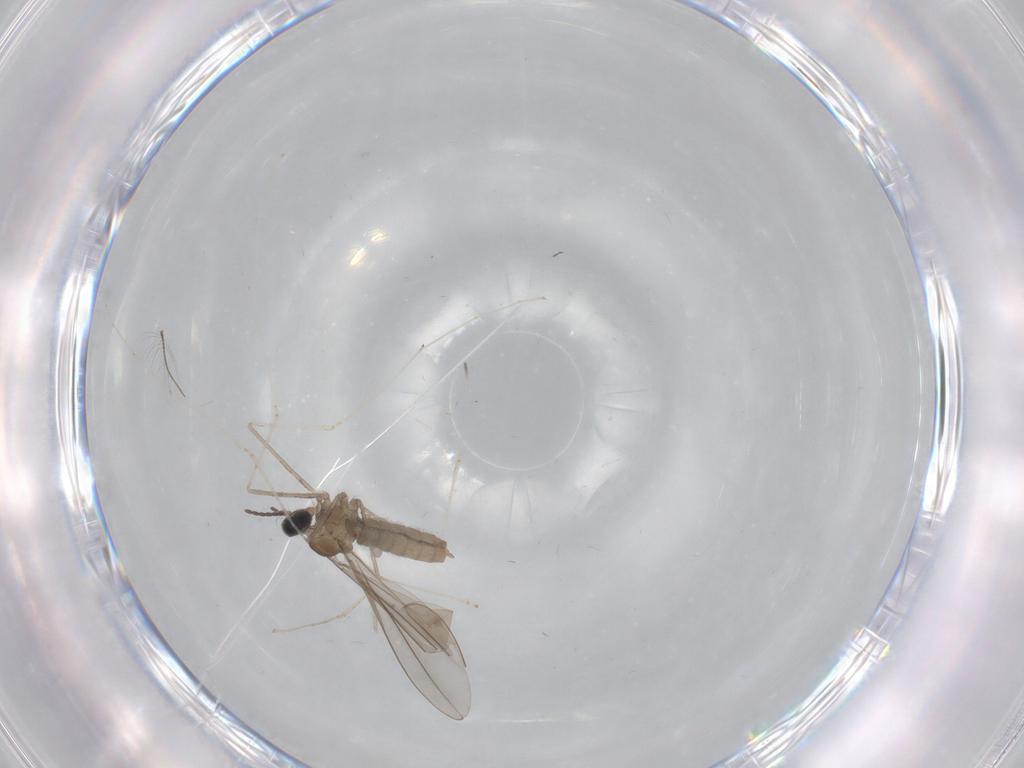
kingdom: Animalia
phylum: Arthropoda
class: Insecta
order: Diptera
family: Cecidomyiidae
